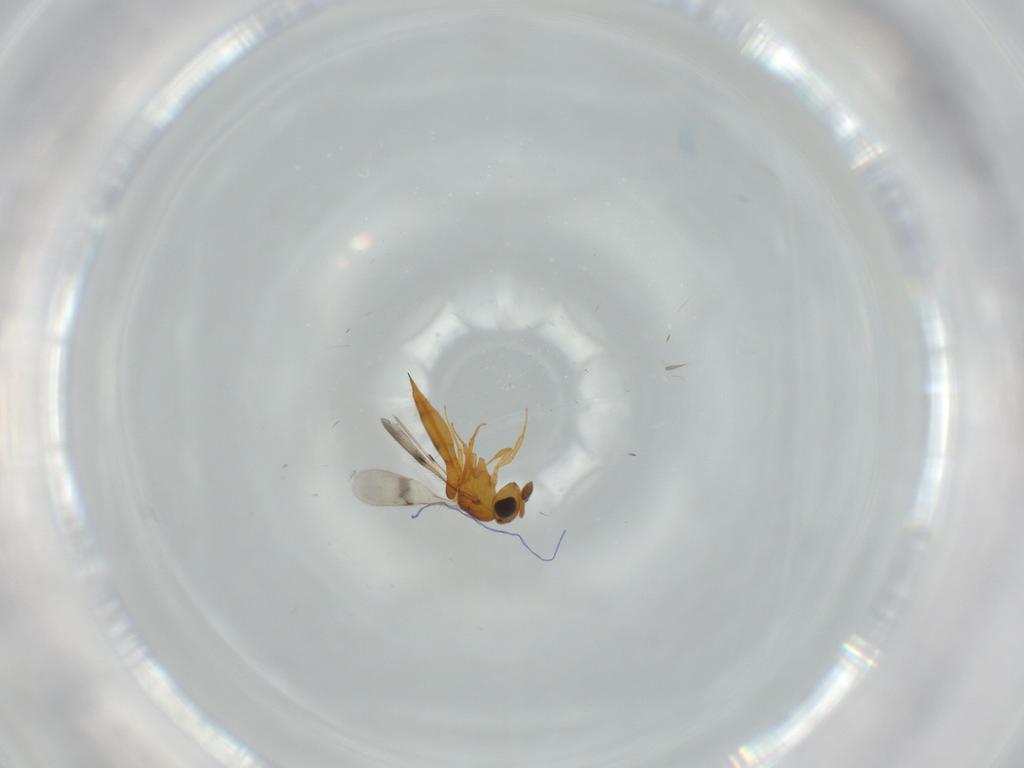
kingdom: Animalia
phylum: Arthropoda
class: Insecta
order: Hymenoptera
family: Scelionidae
